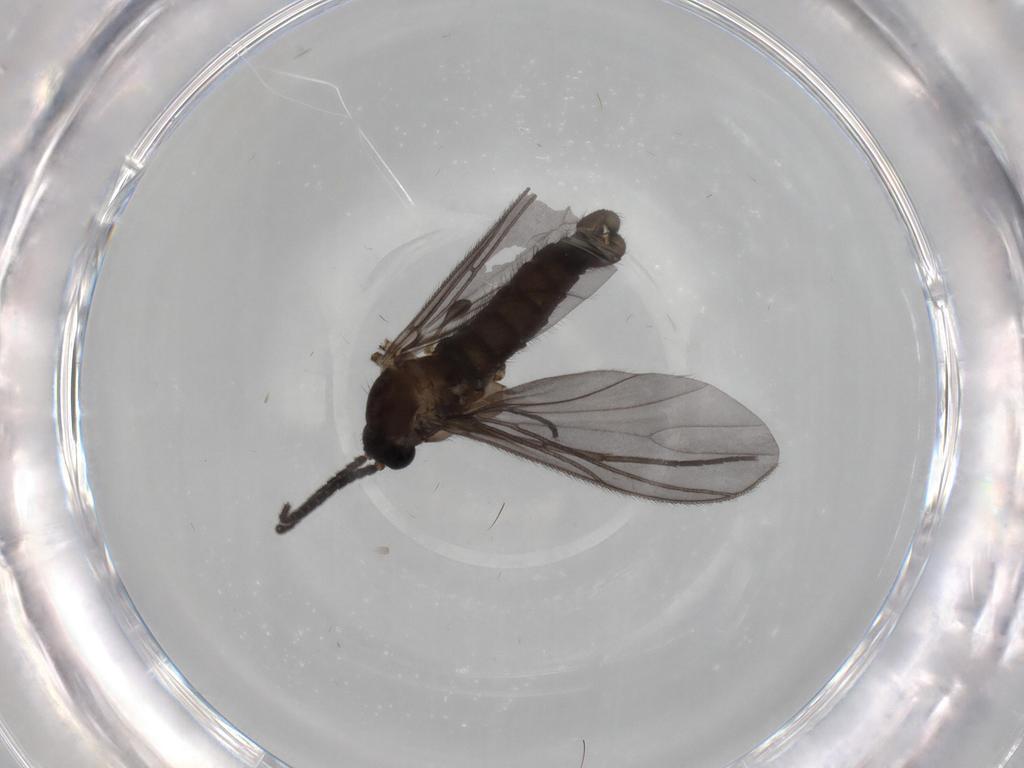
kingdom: Animalia
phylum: Arthropoda
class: Insecta
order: Diptera
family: Sciaridae
